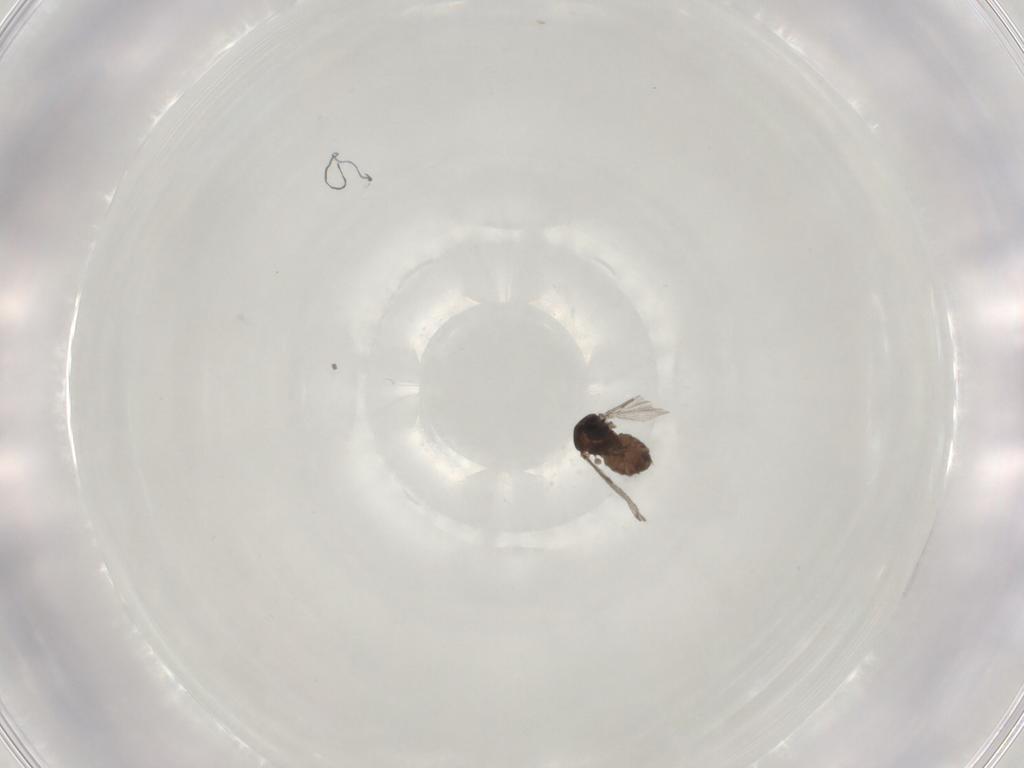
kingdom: Animalia
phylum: Arthropoda
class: Insecta
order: Diptera
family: Ceratopogonidae
